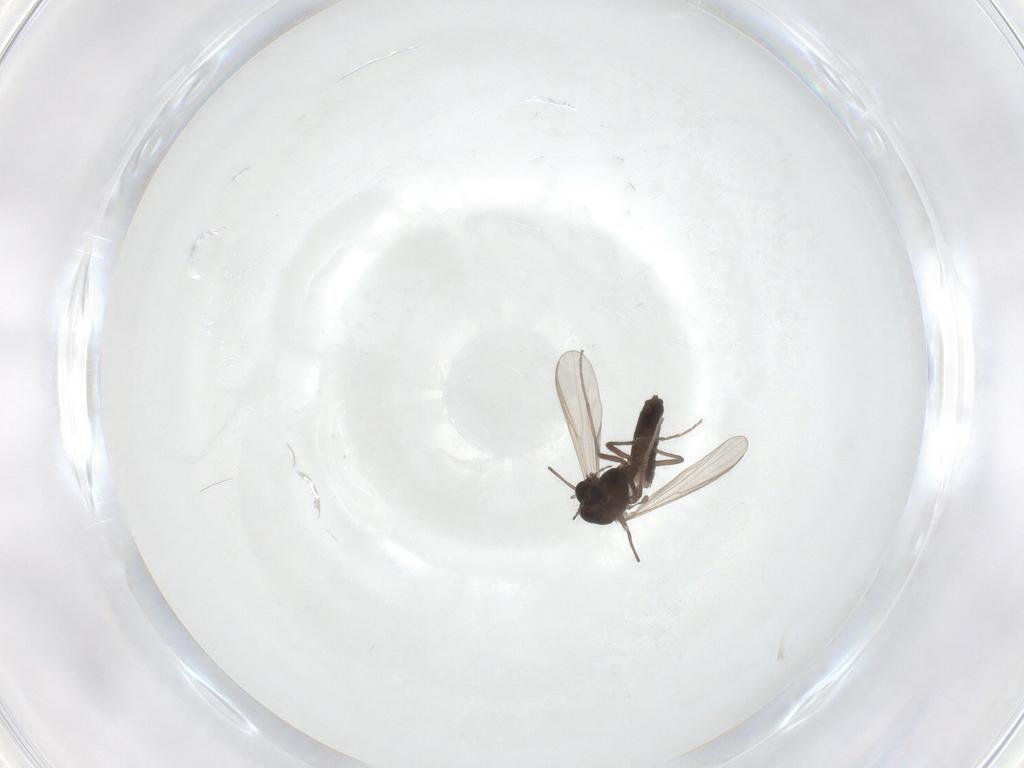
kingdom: Animalia
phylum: Arthropoda
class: Insecta
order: Diptera
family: Chironomidae
